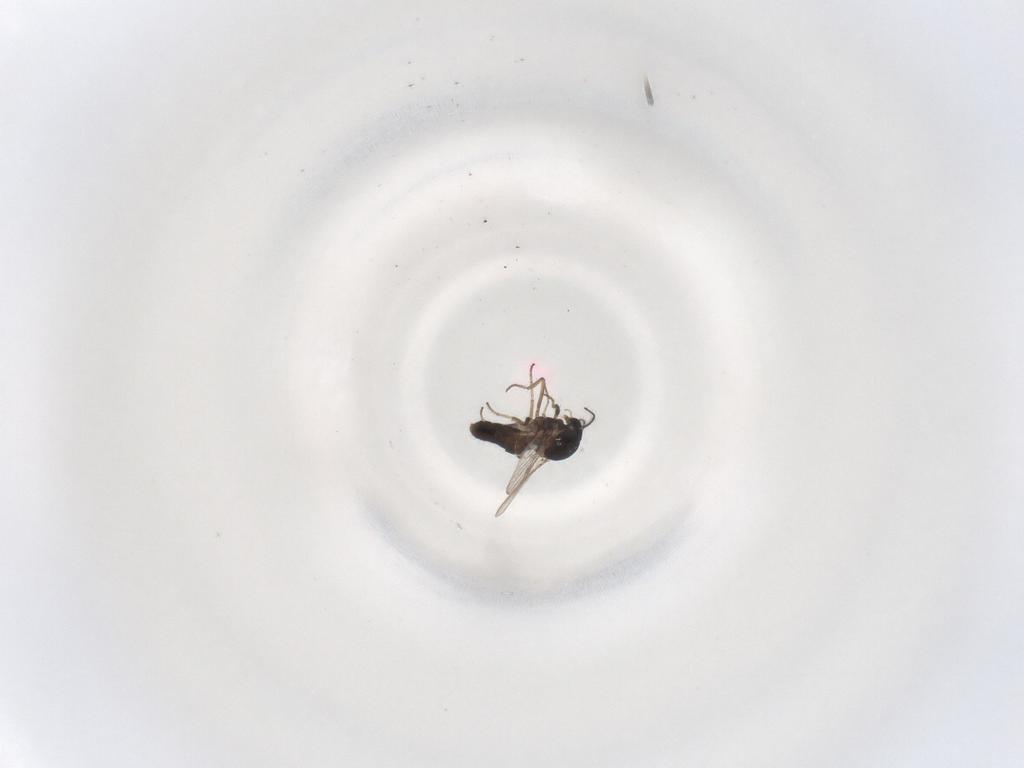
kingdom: Animalia
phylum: Arthropoda
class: Insecta
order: Diptera
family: Ceratopogonidae
